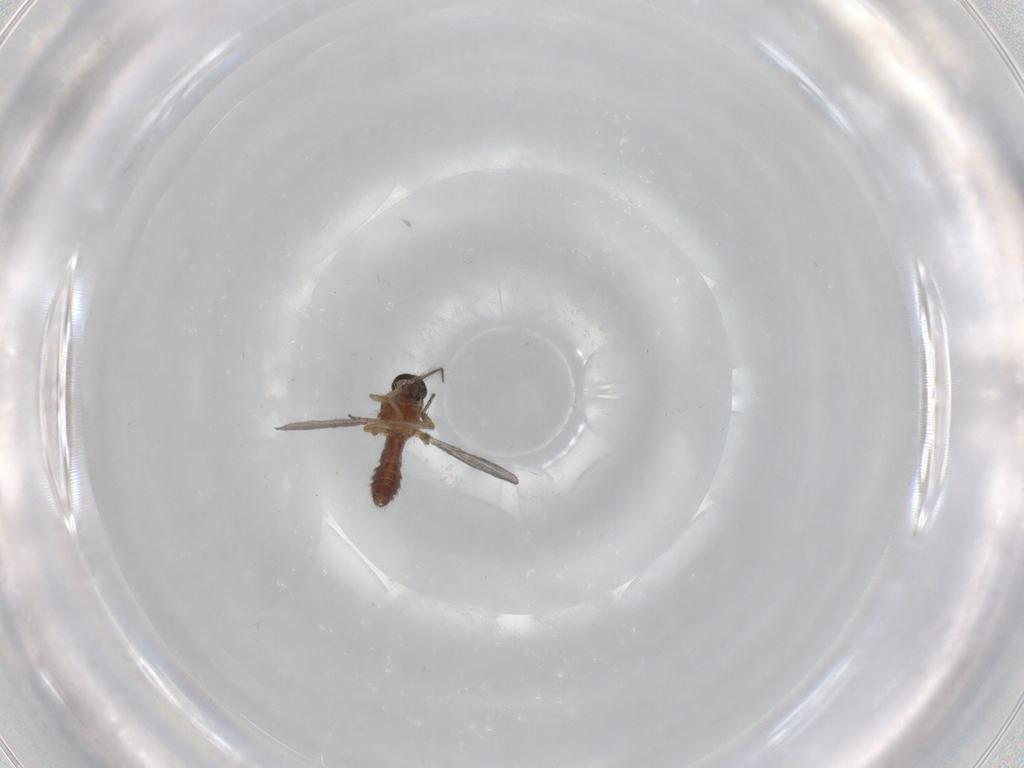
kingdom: Animalia
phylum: Arthropoda
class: Insecta
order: Diptera
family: Ceratopogonidae
